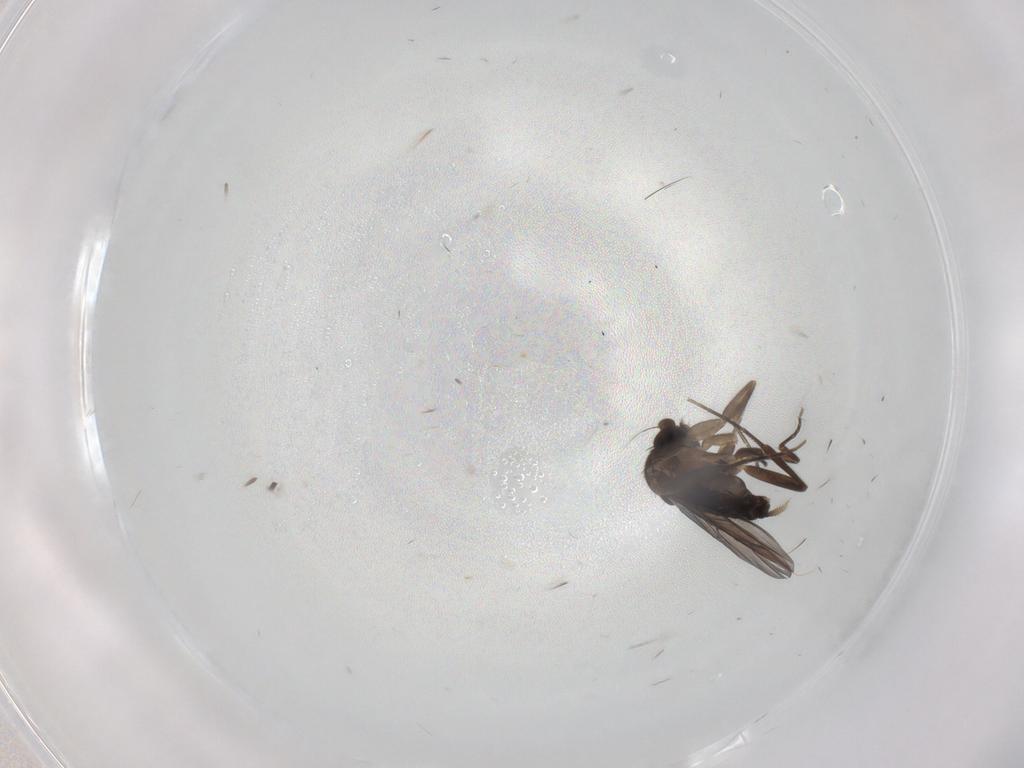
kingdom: Animalia
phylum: Arthropoda
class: Insecta
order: Diptera
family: Phoridae
